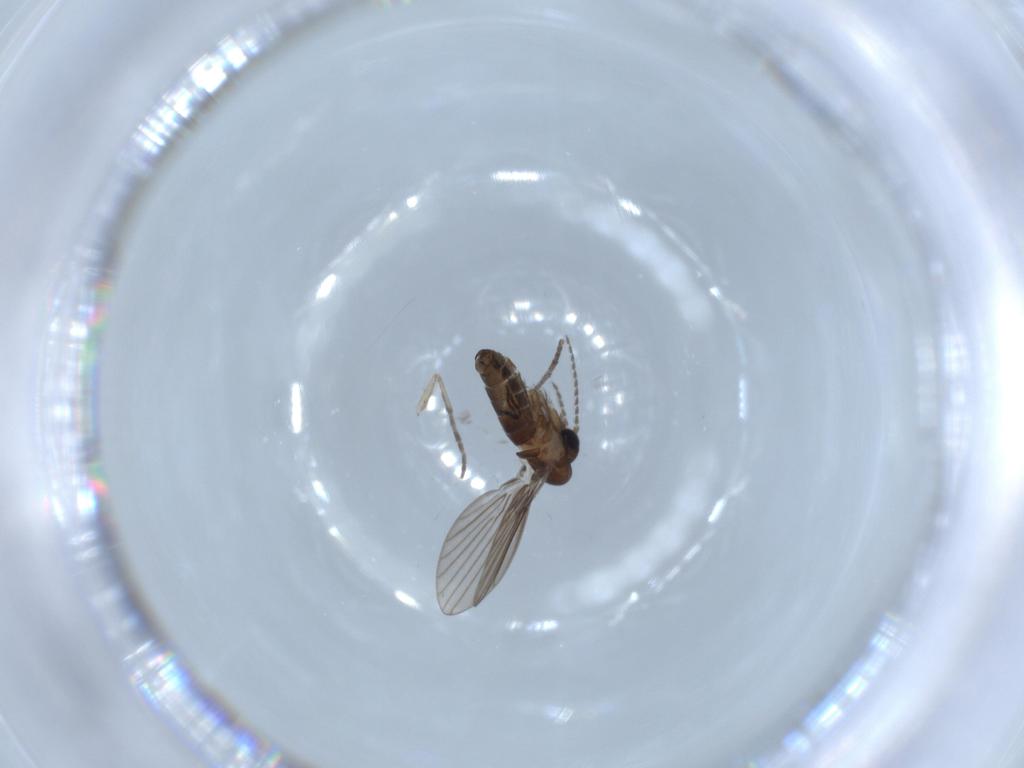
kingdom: Animalia
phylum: Arthropoda
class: Insecta
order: Diptera
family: Psychodidae
